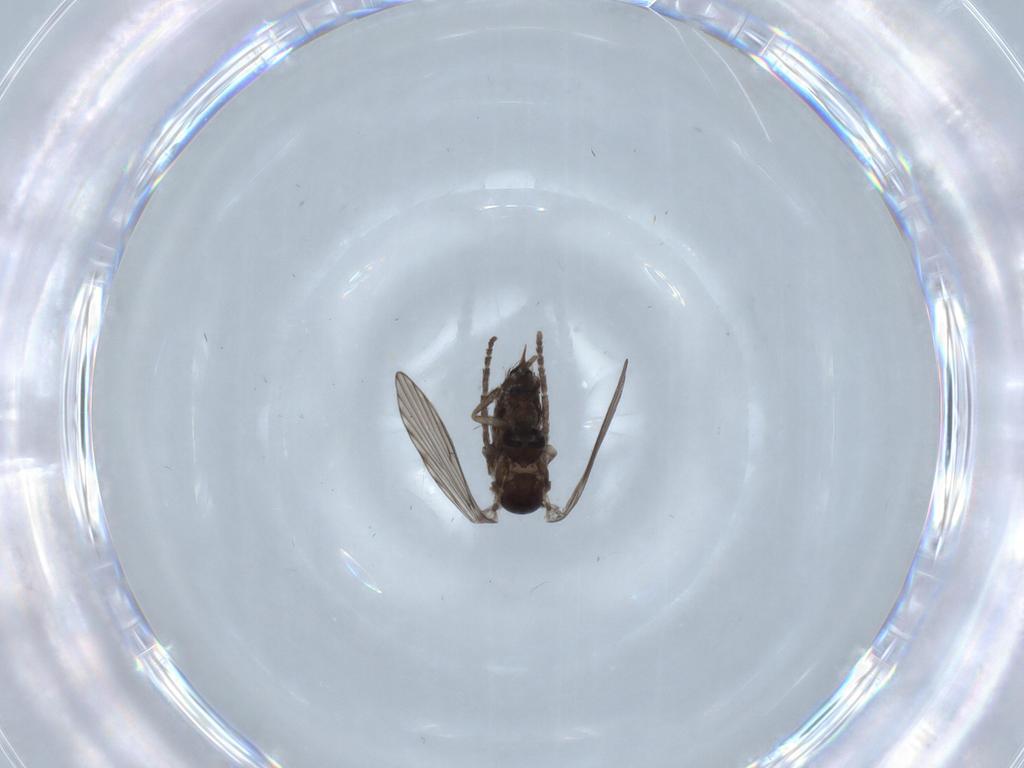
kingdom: Animalia
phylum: Arthropoda
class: Insecta
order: Diptera
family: Psychodidae
